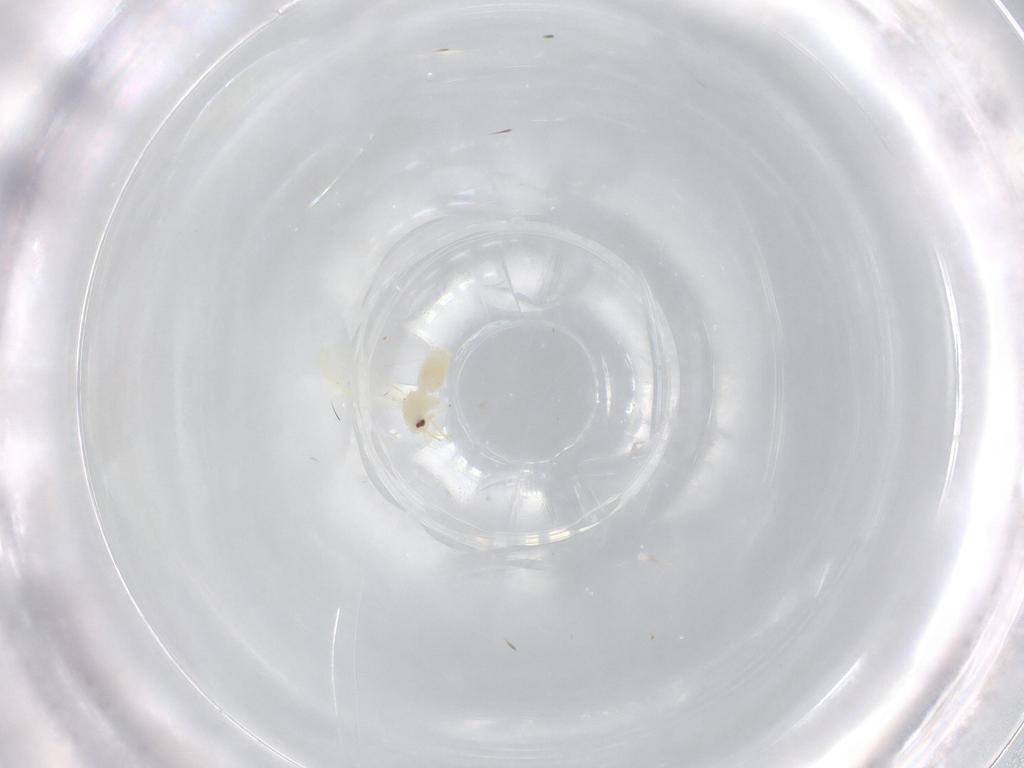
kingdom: Animalia
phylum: Arthropoda
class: Insecta
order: Hemiptera
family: Aleyrodidae
